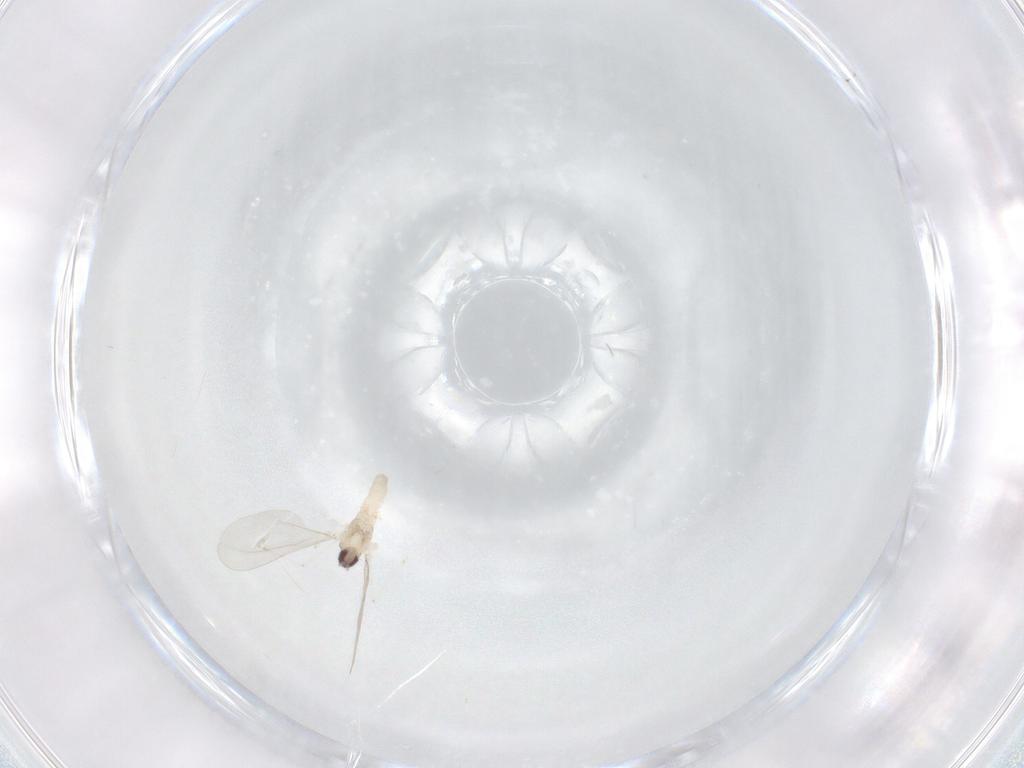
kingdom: Animalia
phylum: Arthropoda
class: Insecta
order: Diptera
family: Cecidomyiidae
